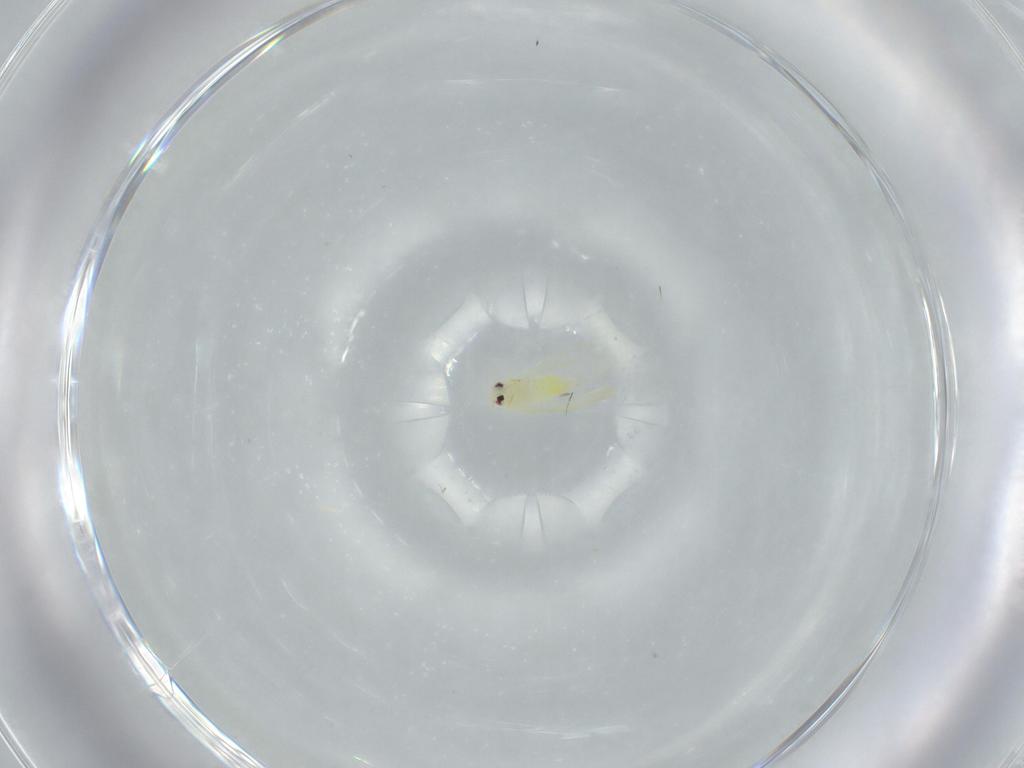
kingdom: Animalia
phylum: Arthropoda
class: Insecta
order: Hemiptera
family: Aleyrodidae
